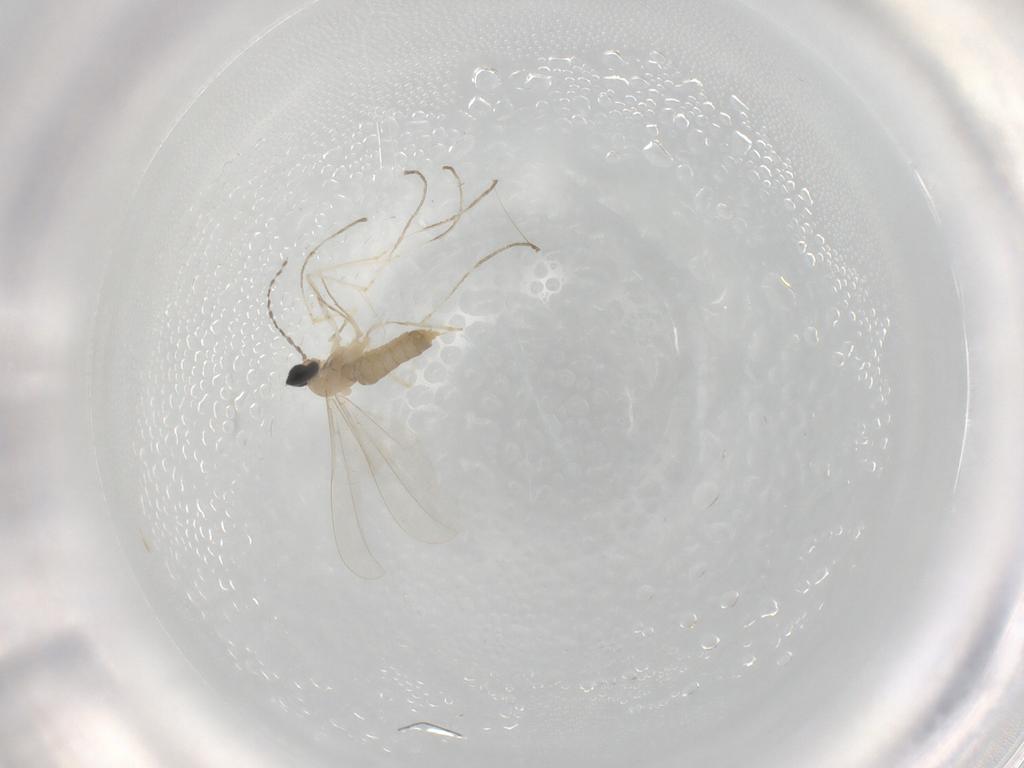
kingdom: Animalia
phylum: Arthropoda
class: Insecta
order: Diptera
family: Cecidomyiidae
